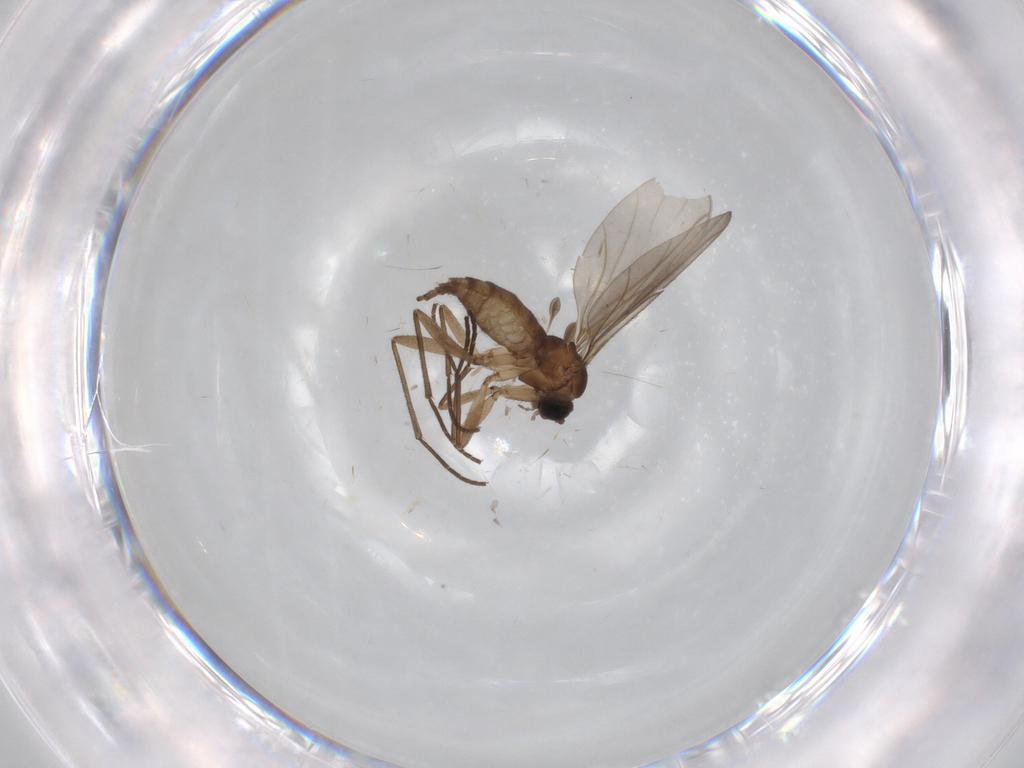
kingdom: Animalia
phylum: Arthropoda
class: Insecta
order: Diptera
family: Sciaridae
